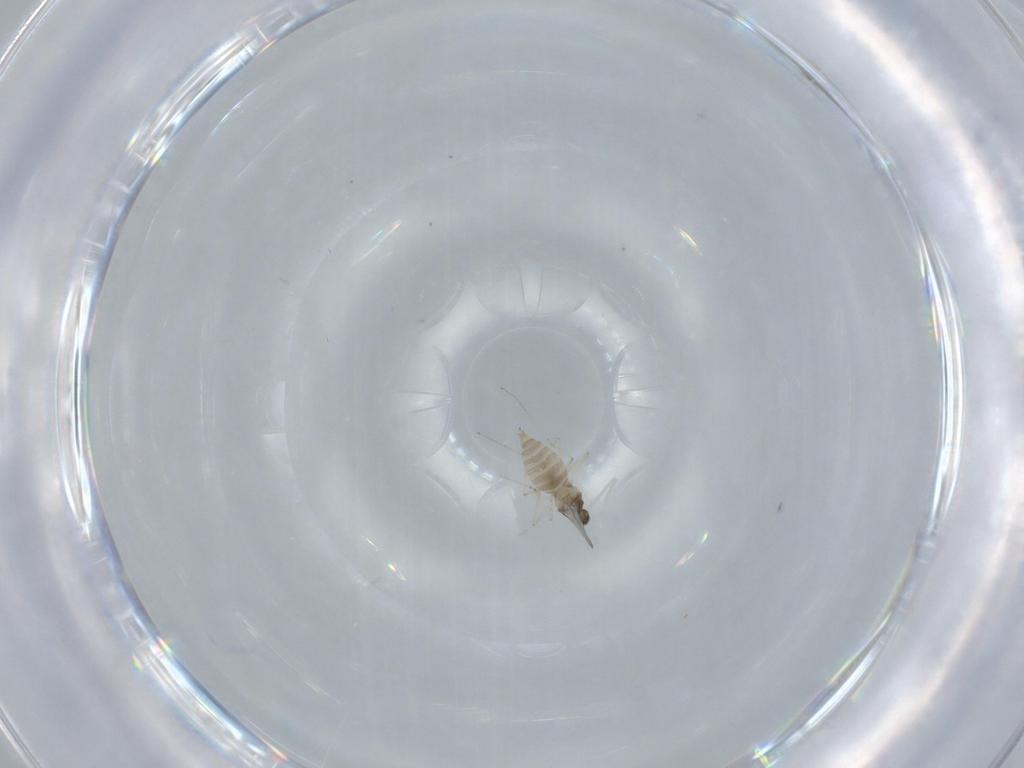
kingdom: Animalia
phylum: Arthropoda
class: Insecta
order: Diptera
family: Cecidomyiidae
